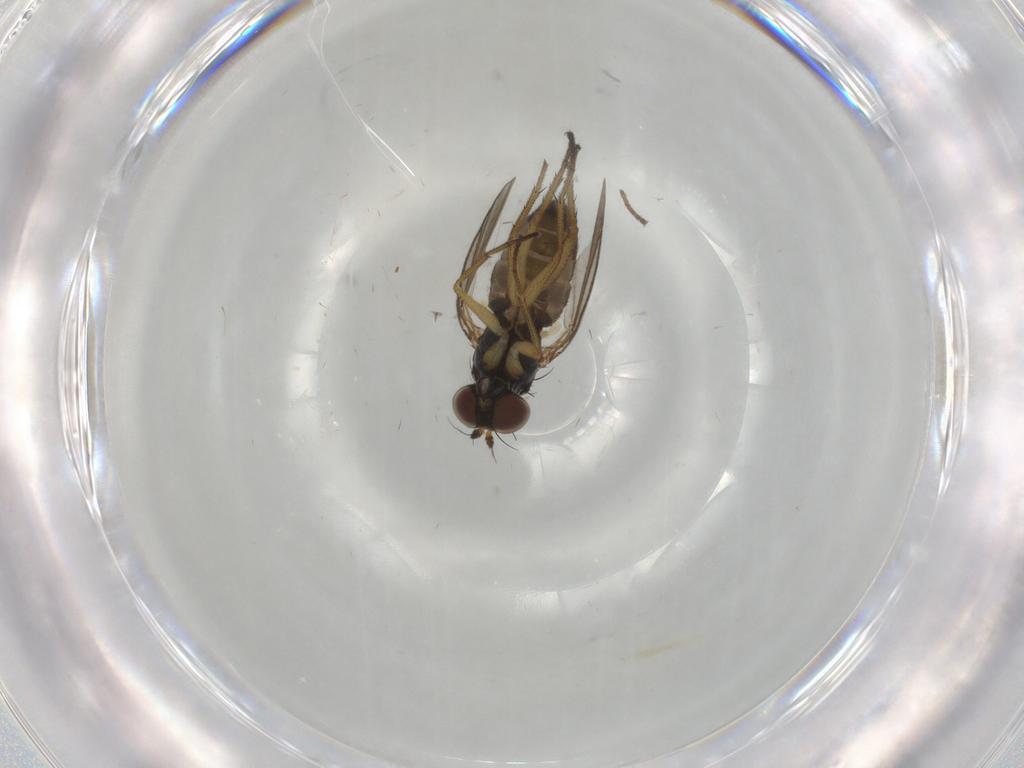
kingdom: Animalia
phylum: Arthropoda
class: Insecta
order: Diptera
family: Dolichopodidae
